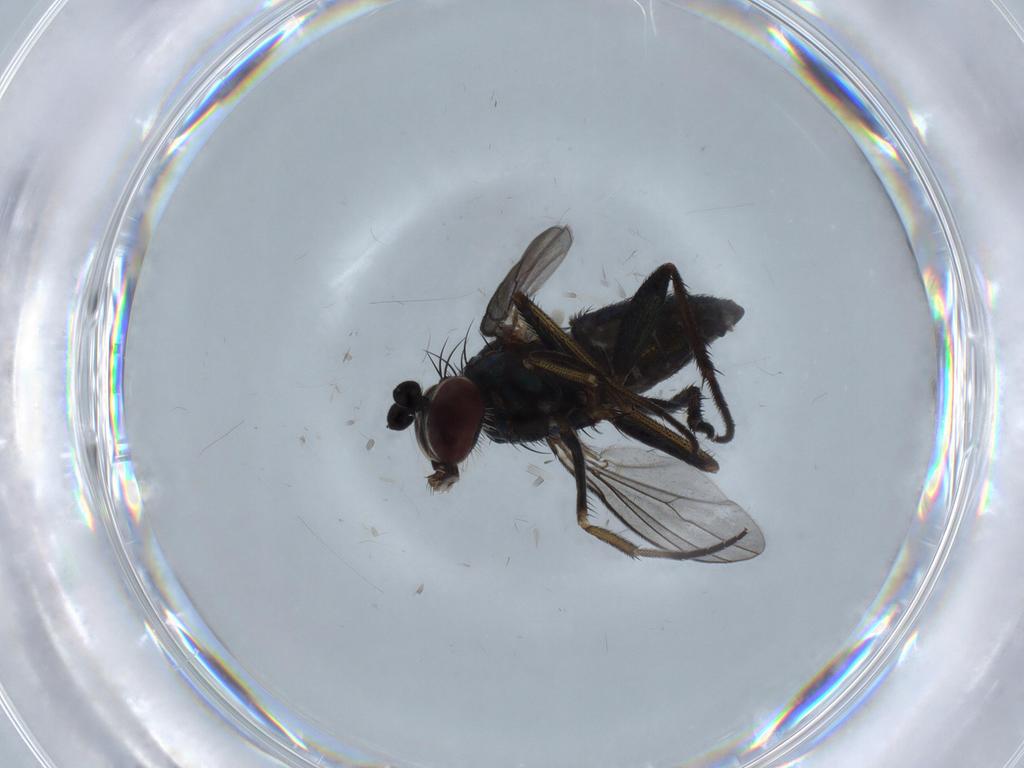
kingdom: Animalia
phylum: Arthropoda
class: Insecta
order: Diptera
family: Dolichopodidae
